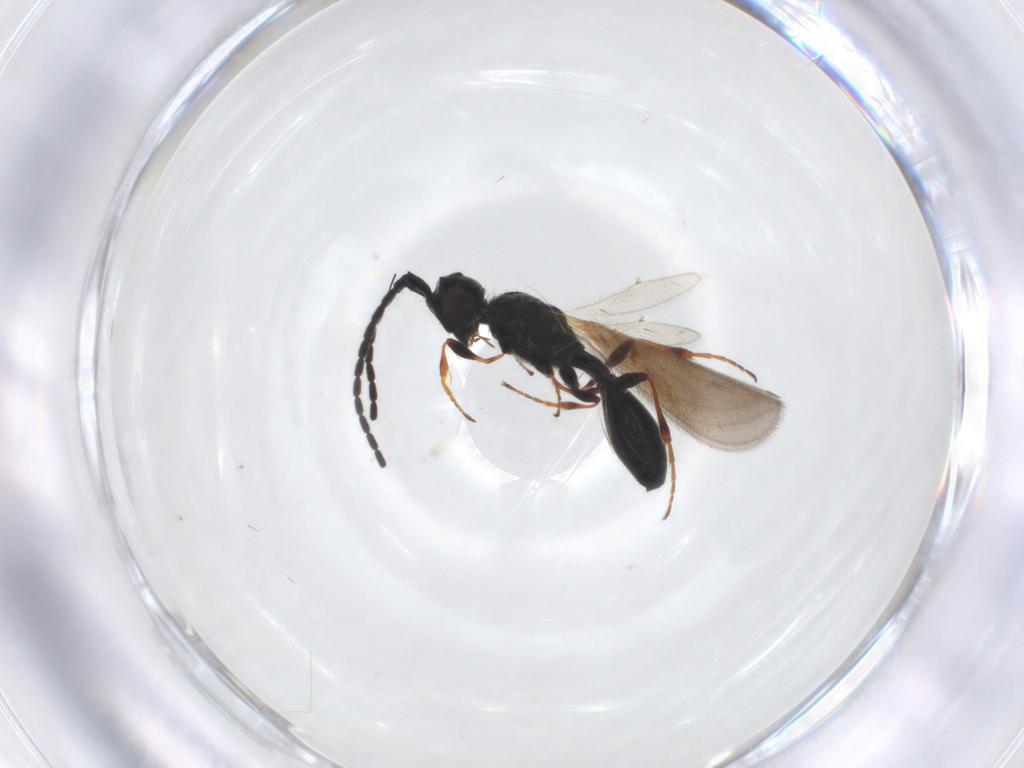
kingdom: Animalia
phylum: Arthropoda
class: Insecta
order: Hymenoptera
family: Diapriidae
